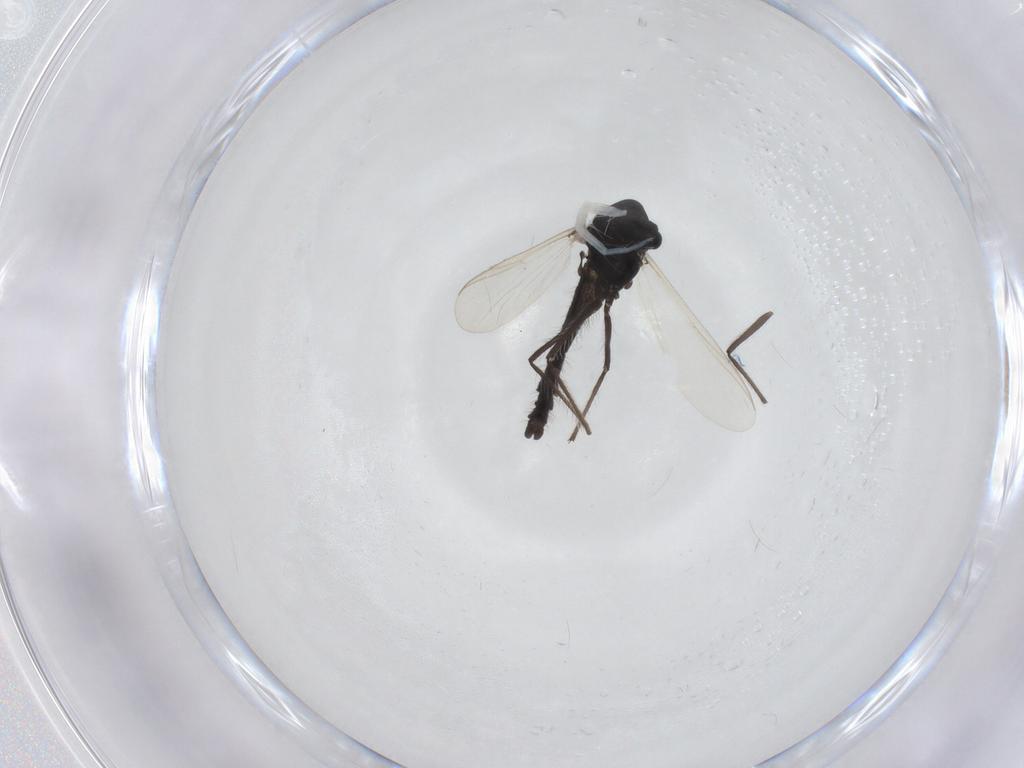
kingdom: Animalia
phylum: Arthropoda
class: Insecta
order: Diptera
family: Chironomidae
